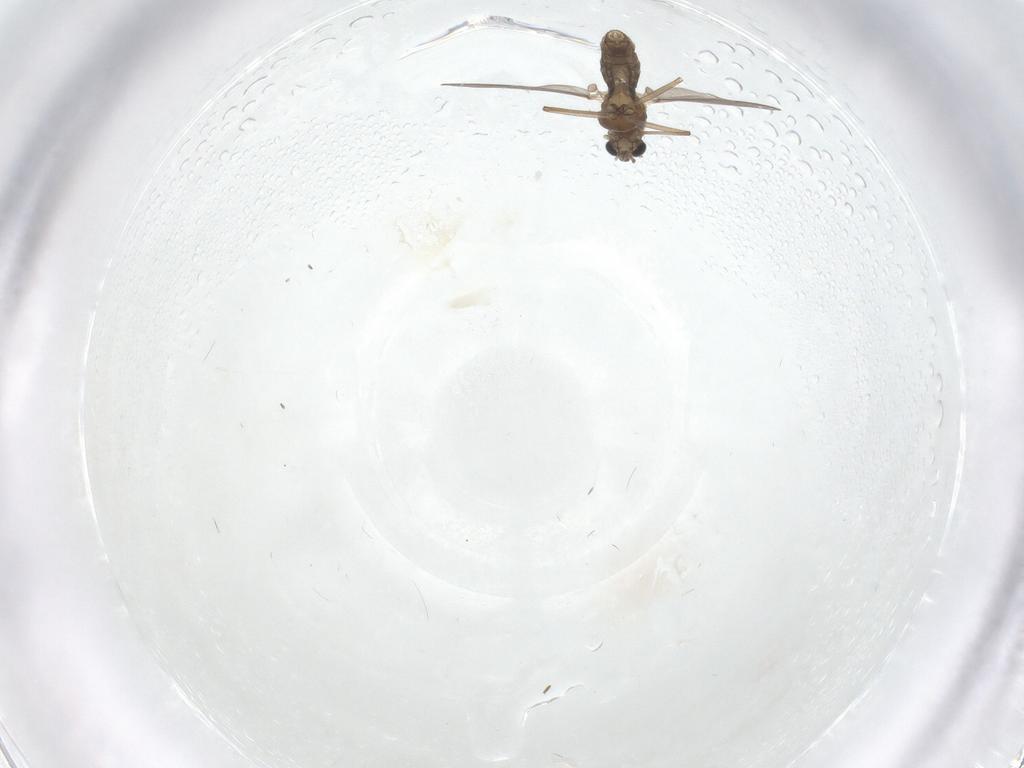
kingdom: Animalia
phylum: Arthropoda
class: Insecta
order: Diptera
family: Chironomidae
